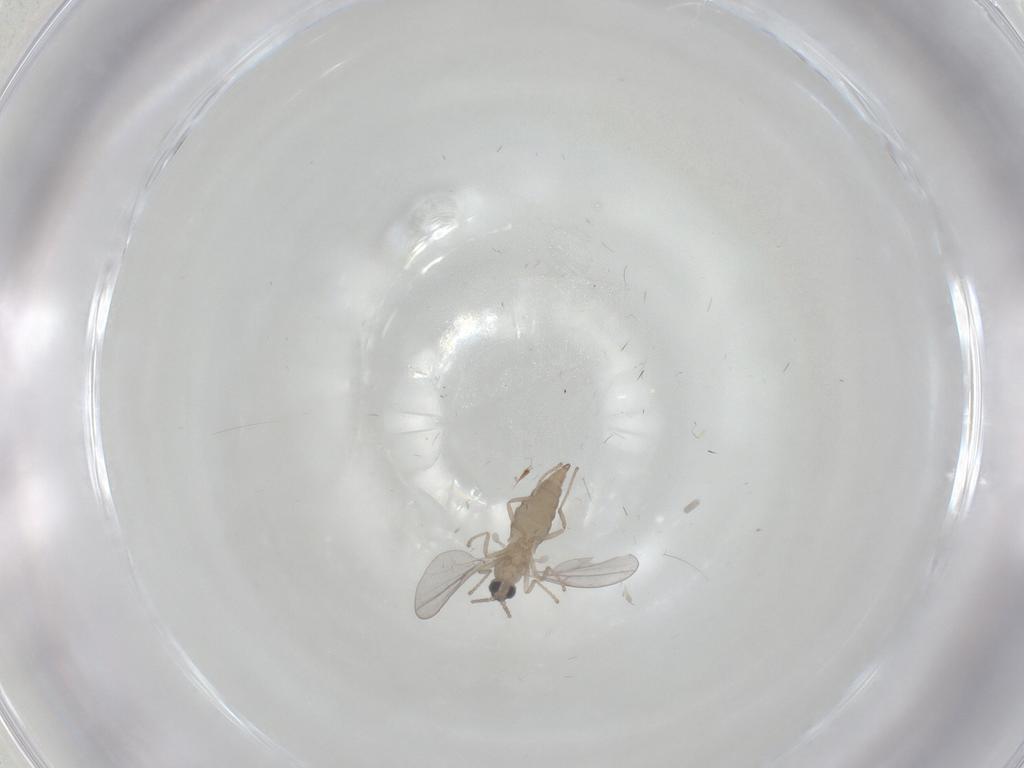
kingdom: Animalia
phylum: Arthropoda
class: Insecta
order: Diptera
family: Cecidomyiidae
